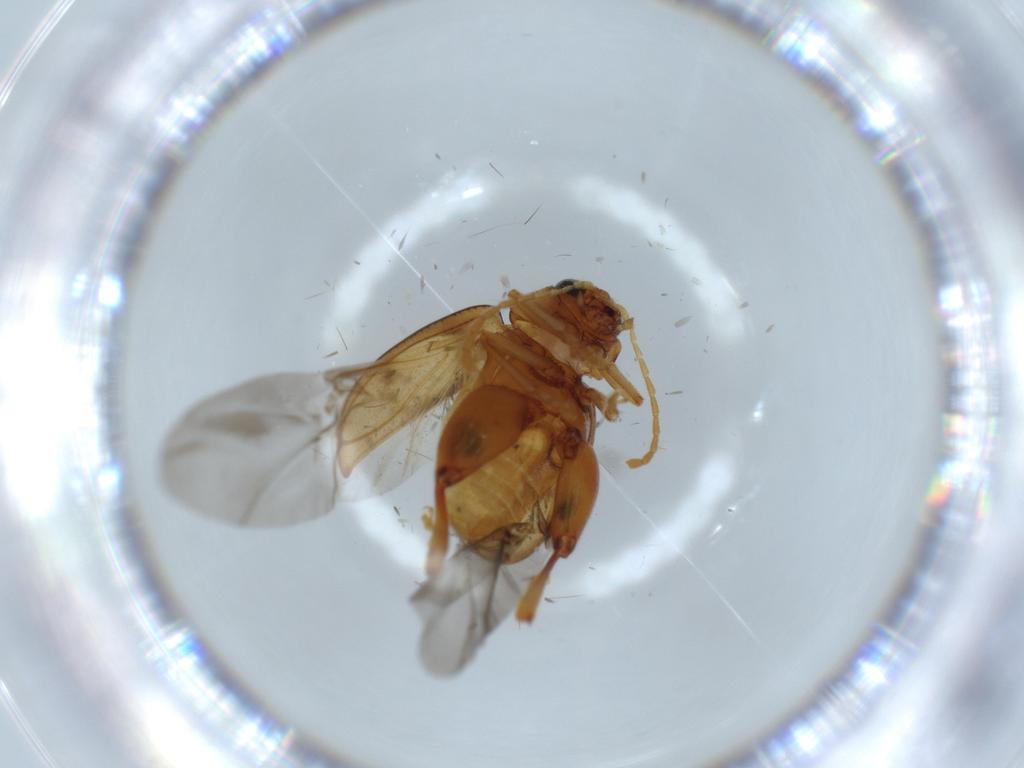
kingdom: Animalia
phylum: Arthropoda
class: Insecta
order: Coleoptera
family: Chrysomelidae
